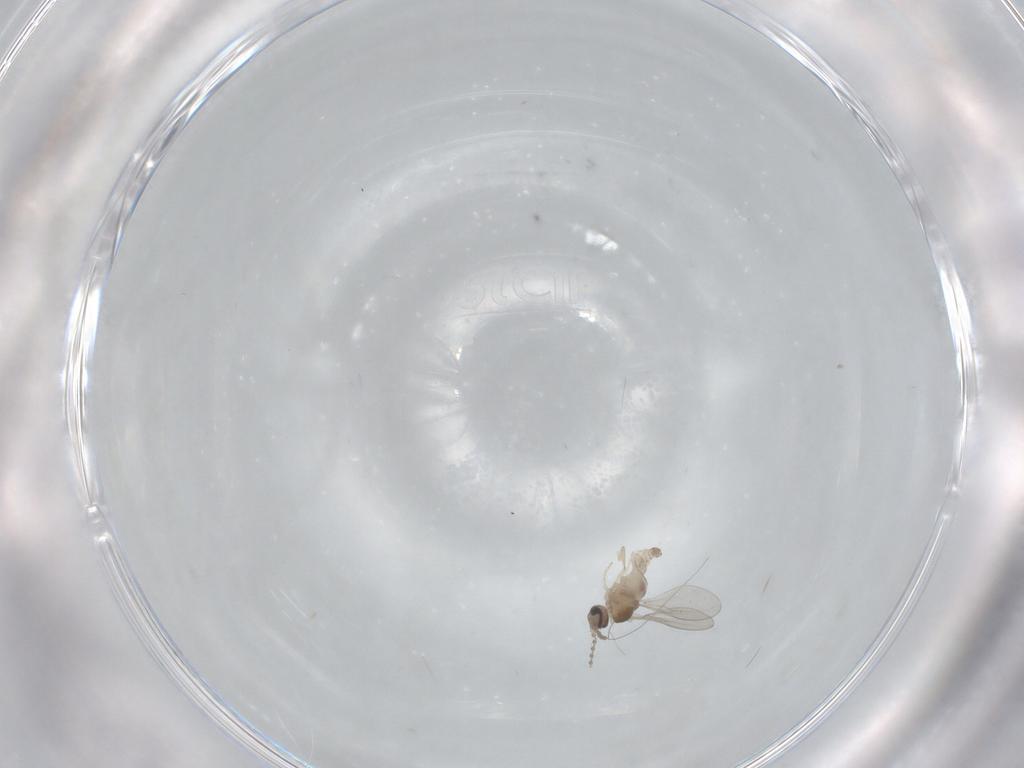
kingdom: Animalia
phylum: Arthropoda
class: Insecta
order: Diptera
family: Cecidomyiidae
